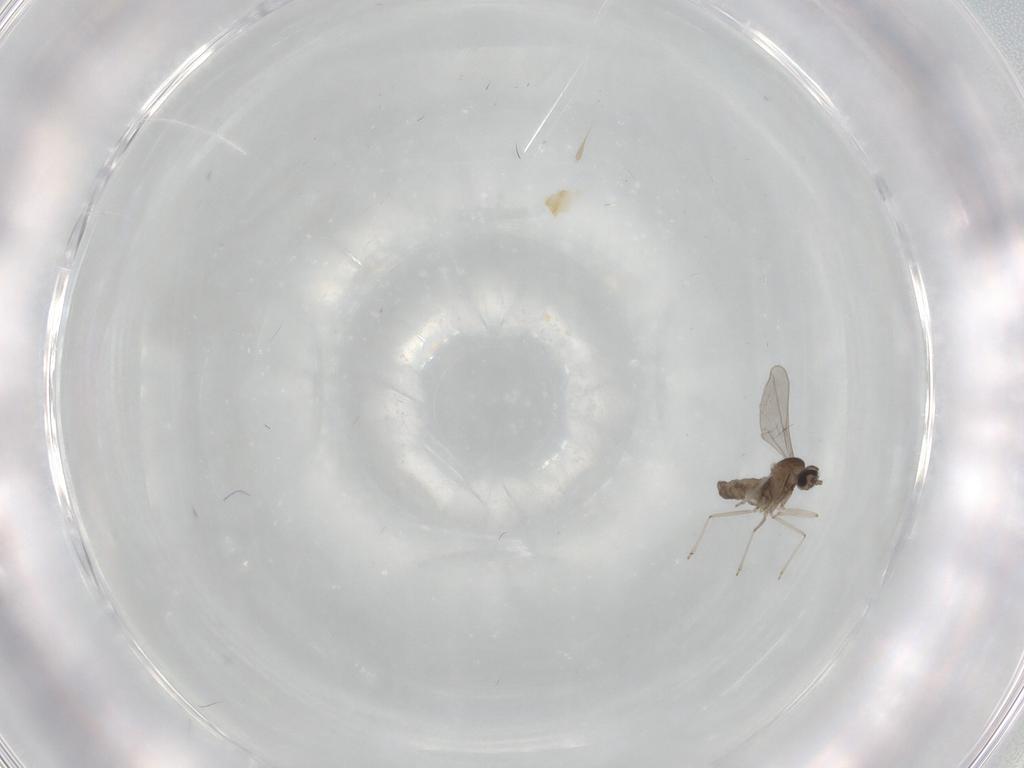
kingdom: Animalia
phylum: Arthropoda
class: Insecta
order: Diptera
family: Cecidomyiidae
